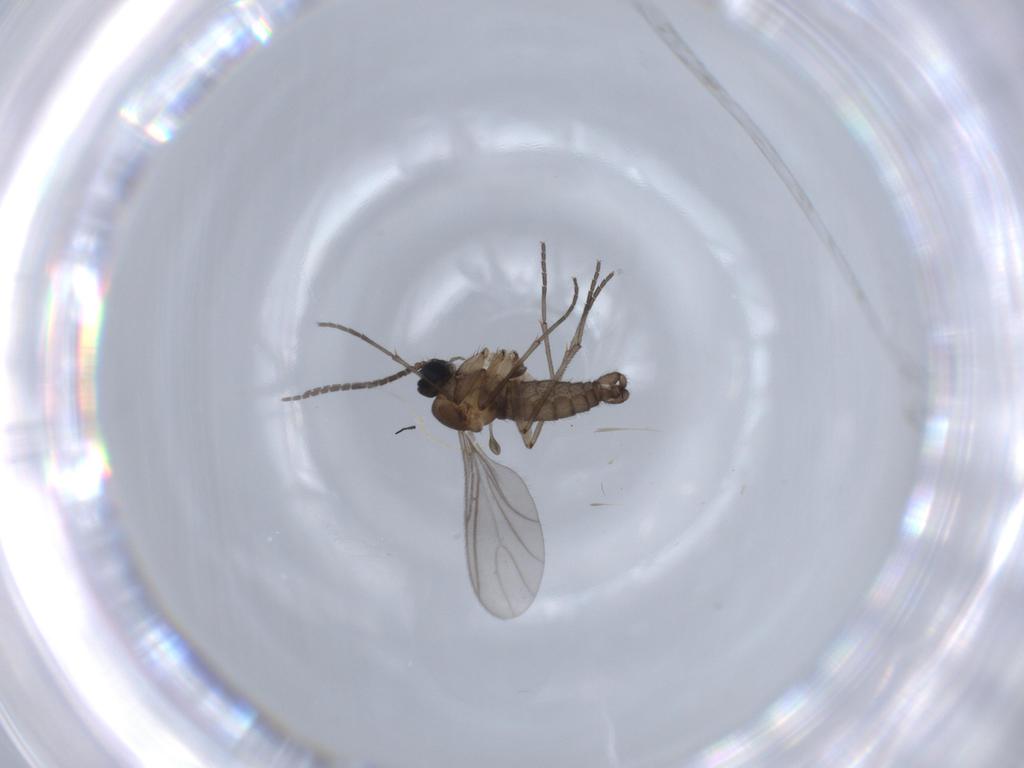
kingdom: Animalia
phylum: Arthropoda
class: Insecta
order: Diptera
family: Sciaridae
